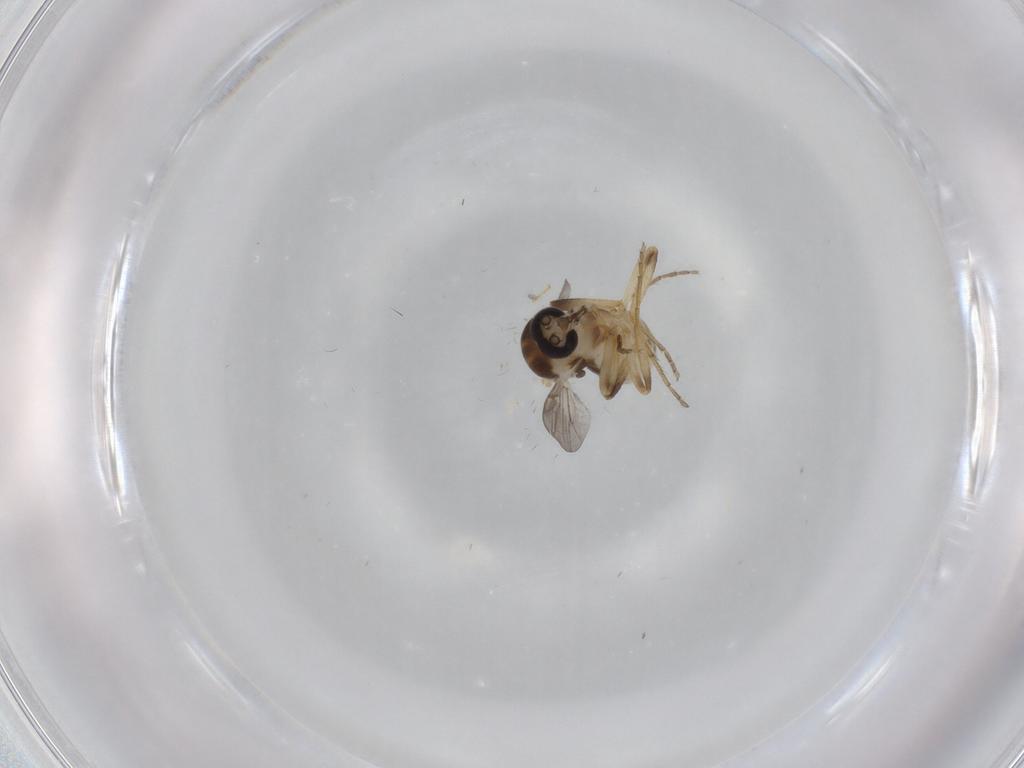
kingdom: Animalia
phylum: Arthropoda
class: Insecta
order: Diptera
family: Ceratopogonidae
